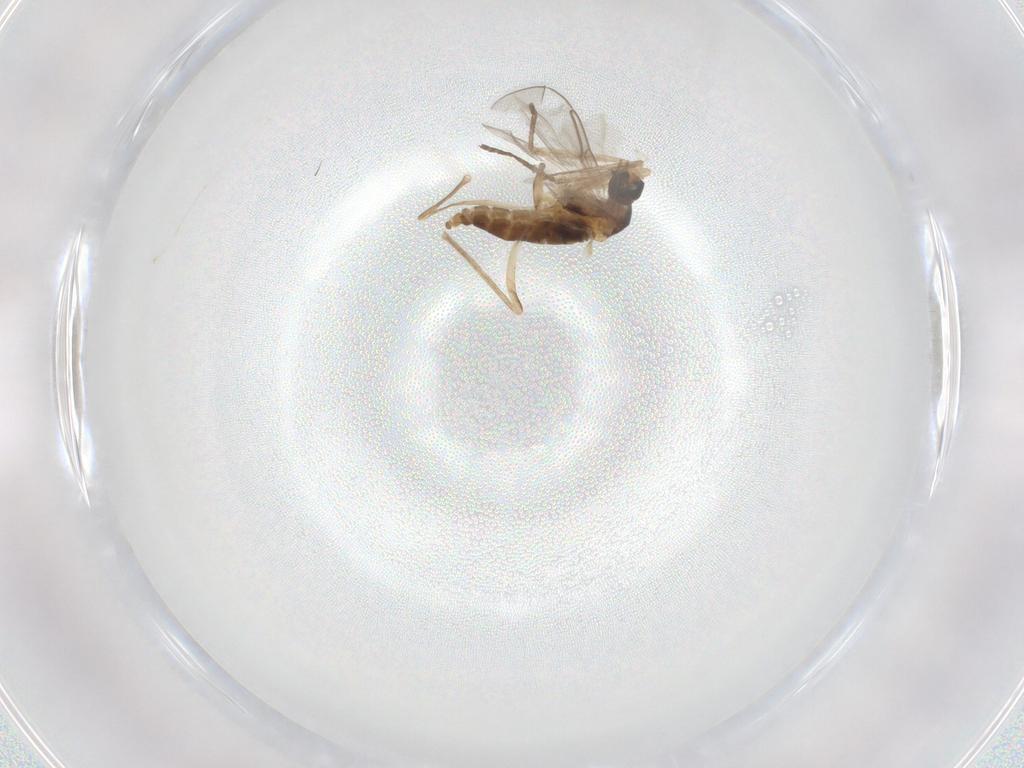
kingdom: Animalia
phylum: Arthropoda
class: Insecta
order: Diptera
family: Cecidomyiidae
